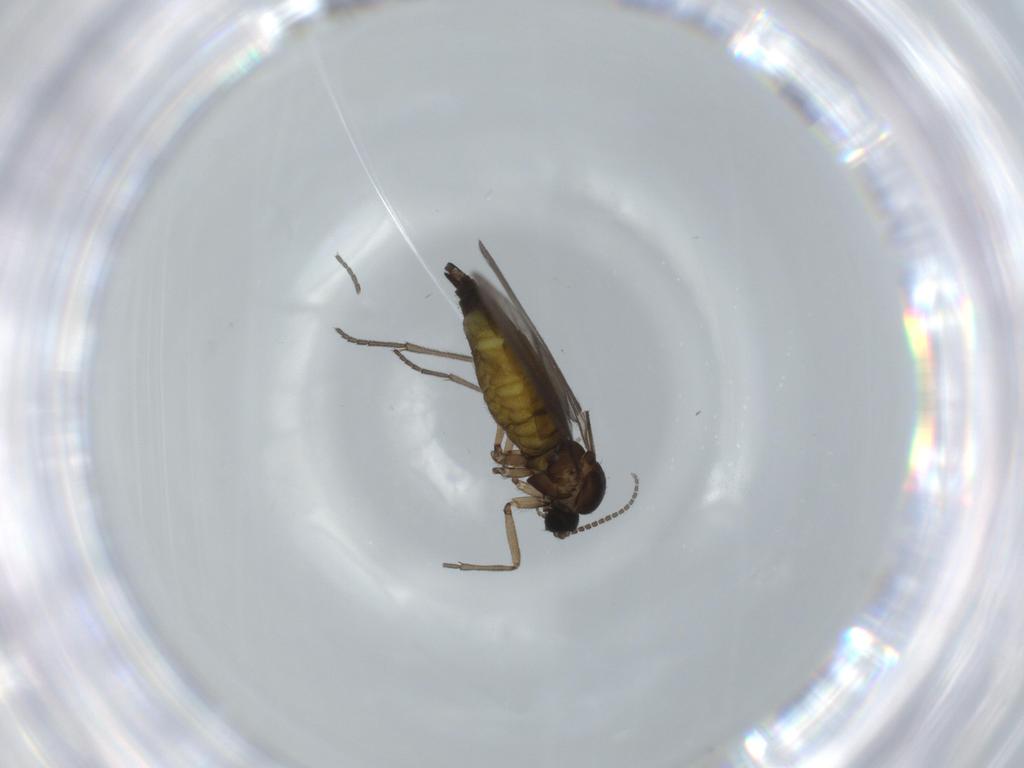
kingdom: Animalia
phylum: Arthropoda
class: Insecta
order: Diptera
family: Sciaridae
